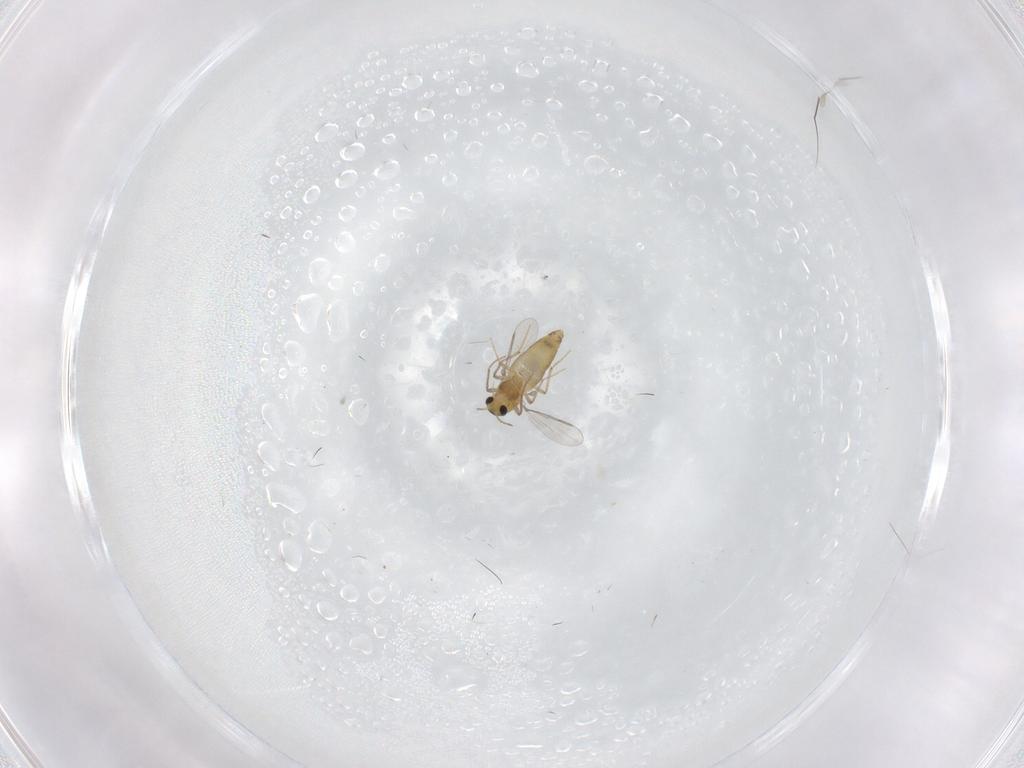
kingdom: Animalia
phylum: Arthropoda
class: Insecta
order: Diptera
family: Chironomidae
